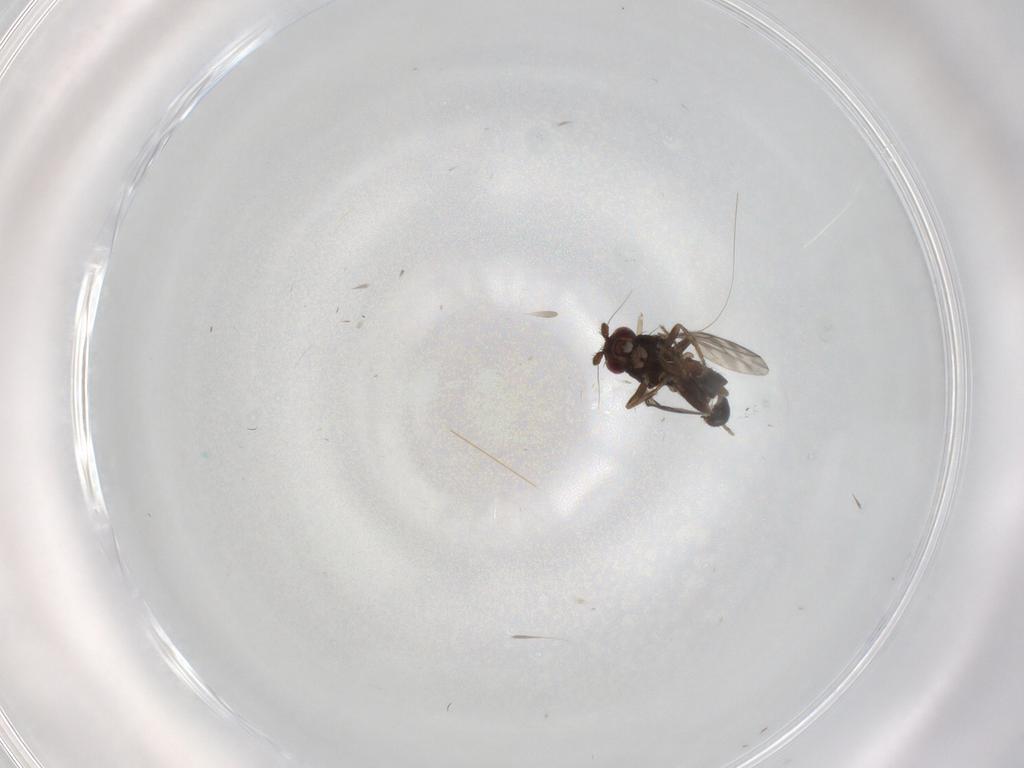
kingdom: Animalia
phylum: Arthropoda
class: Insecta
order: Diptera
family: Sphaeroceridae
